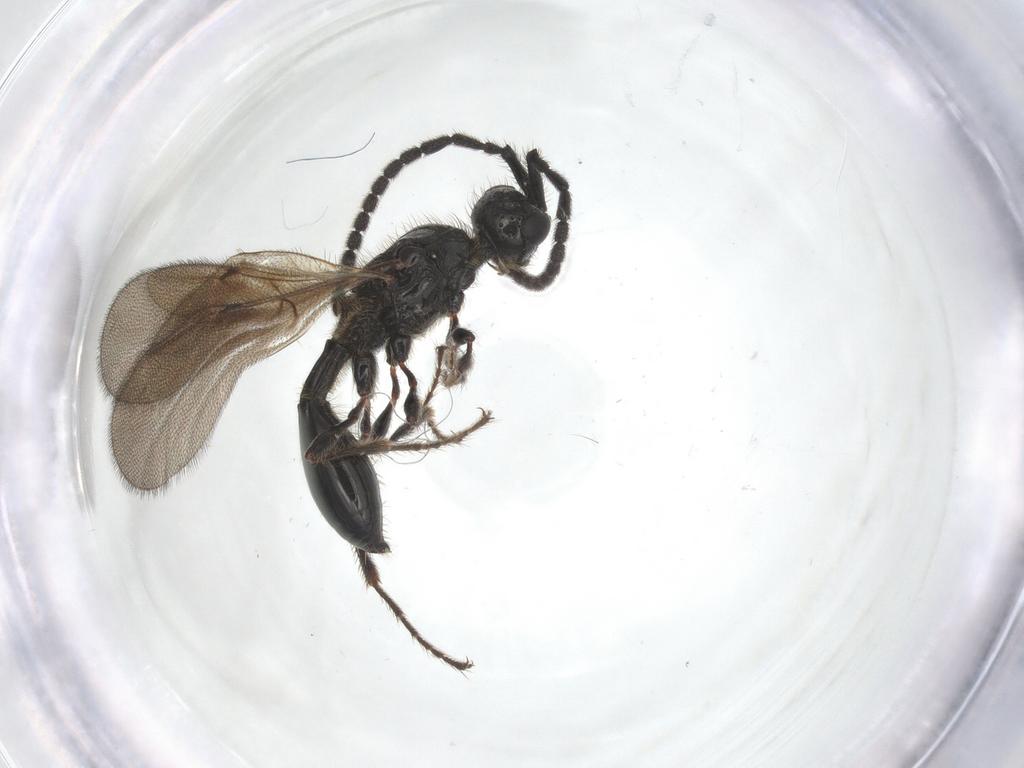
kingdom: Animalia
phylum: Arthropoda
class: Insecta
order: Hymenoptera
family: Diapriidae
